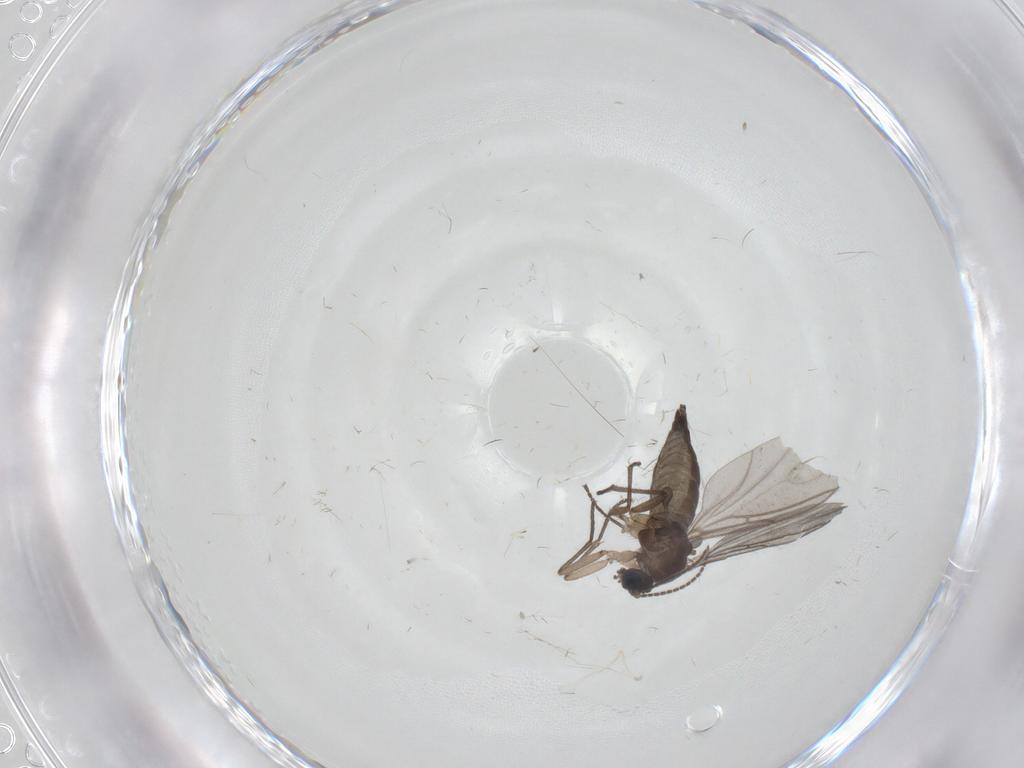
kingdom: Animalia
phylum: Arthropoda
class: Insecta
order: Diptera
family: Sciaridae
